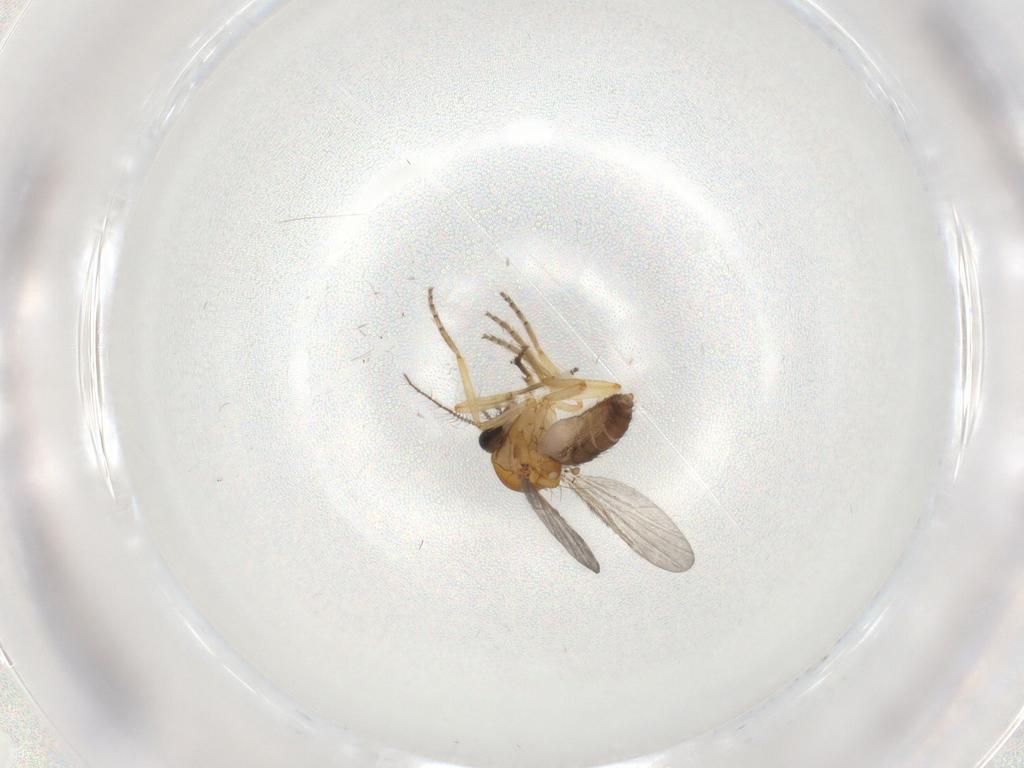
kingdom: Animalia
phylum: Arthropoda
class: Insecta
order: Diptera
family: Ceratopogonidae
